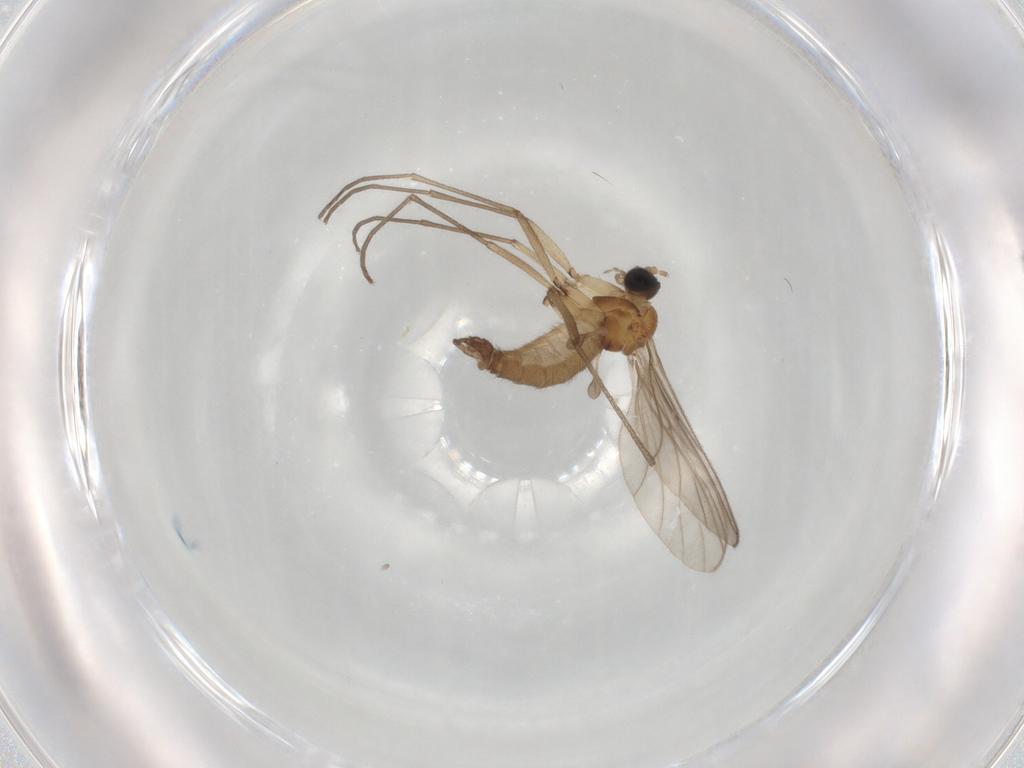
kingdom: Animalia
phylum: Arthropoda
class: Insecta
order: Diptera
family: Sciaridae
